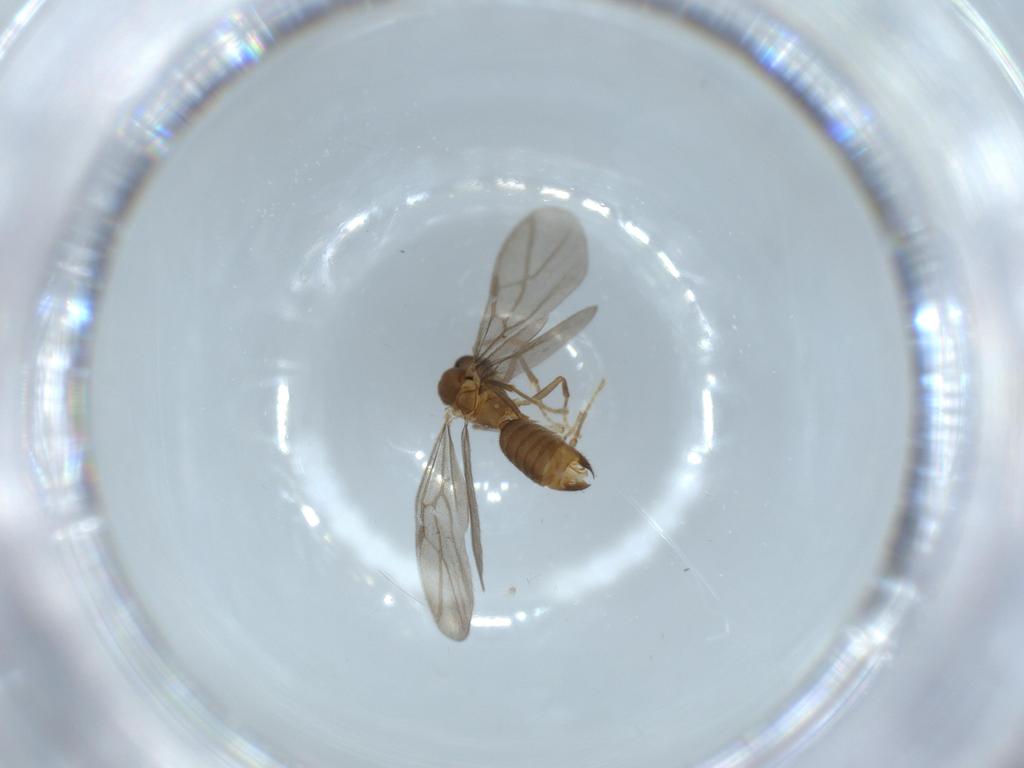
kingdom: Animalia
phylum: Arthropoda
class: Insecta
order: Hymenoptera
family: Formicidae
